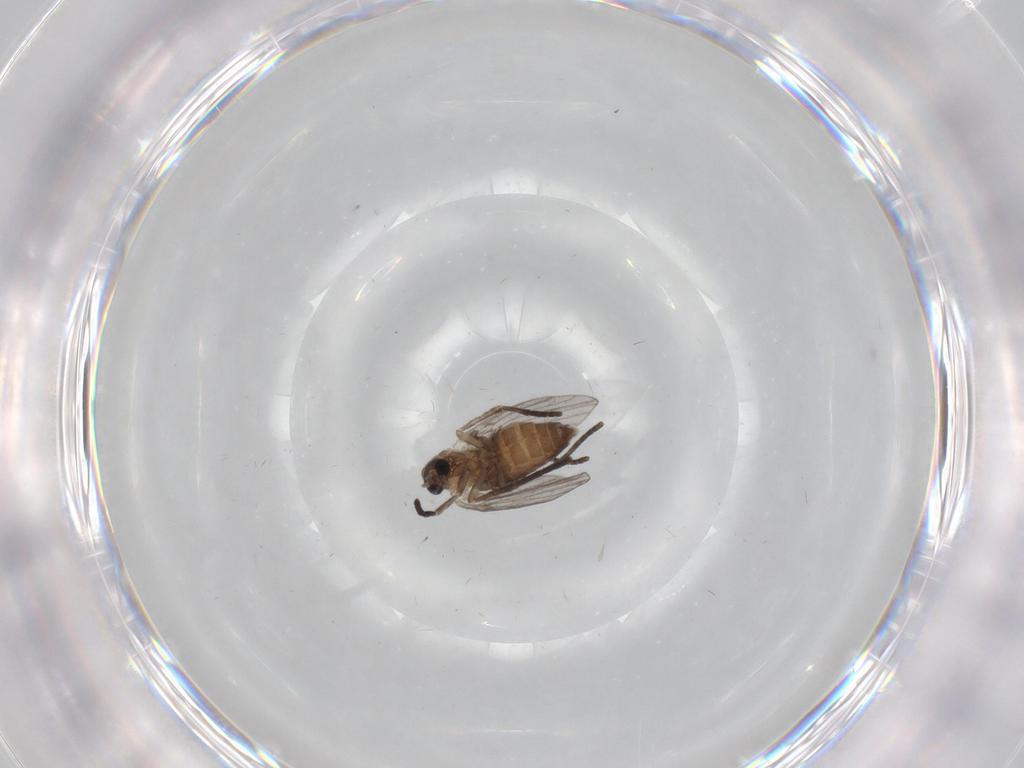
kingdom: Animalia
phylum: Arthropoda
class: Insecta
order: Diptera
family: Psychodidae
